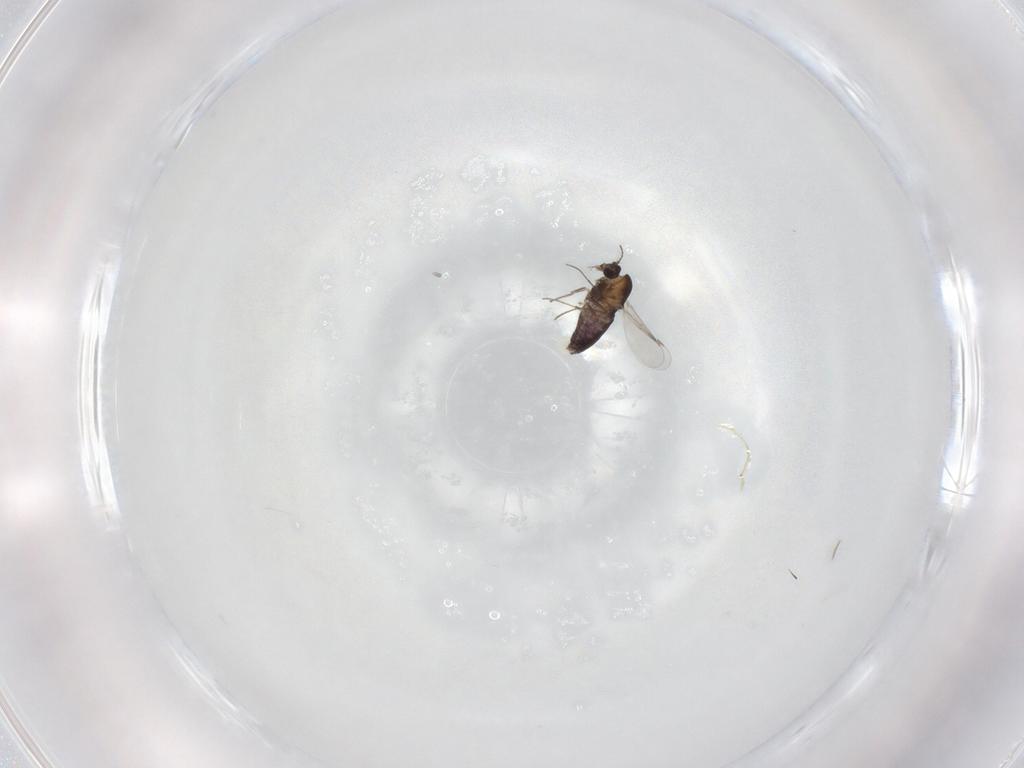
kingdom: Animalia
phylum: Arthropoda
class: Insecta
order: Diptera
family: Chironomidae
